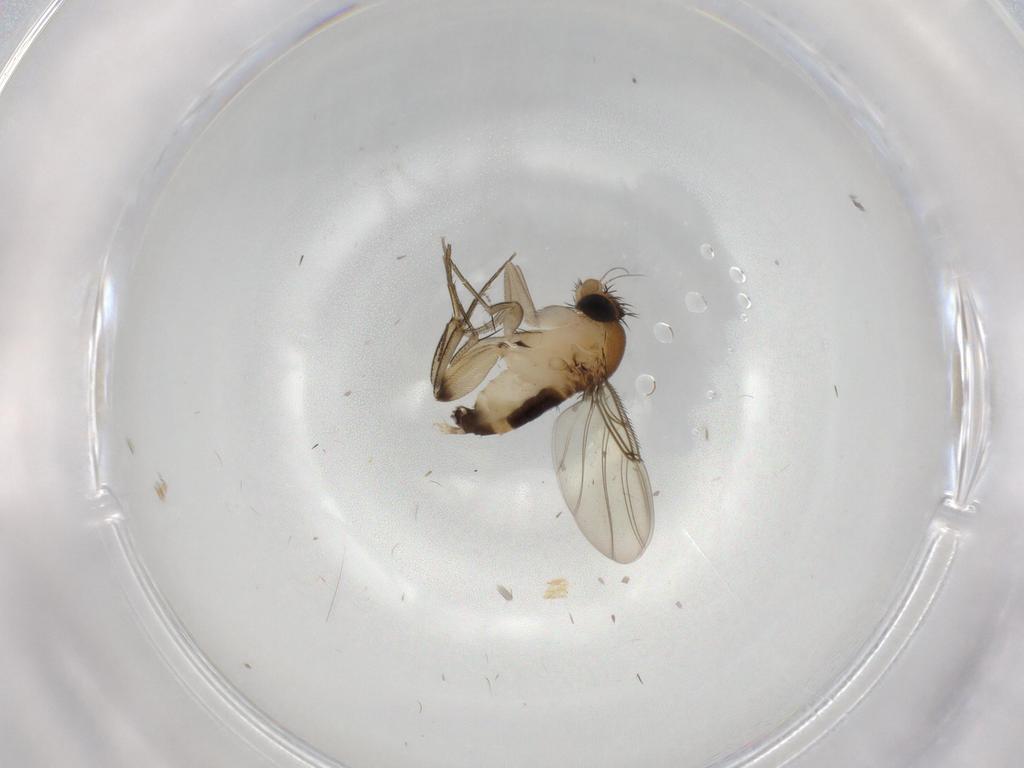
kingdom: Animalia
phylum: Arthropoda
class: Insecta
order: Diptera
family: Phoridae
